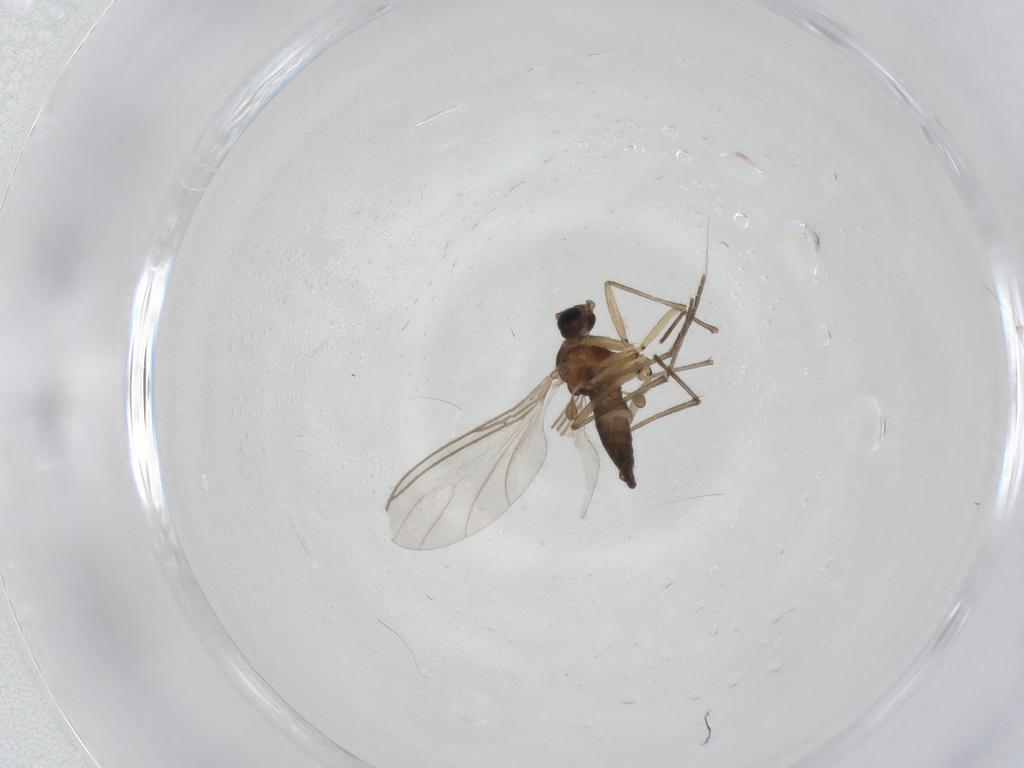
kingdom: Animalia
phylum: Arthropoda
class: Insecta
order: Diptera
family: Sciaridae
